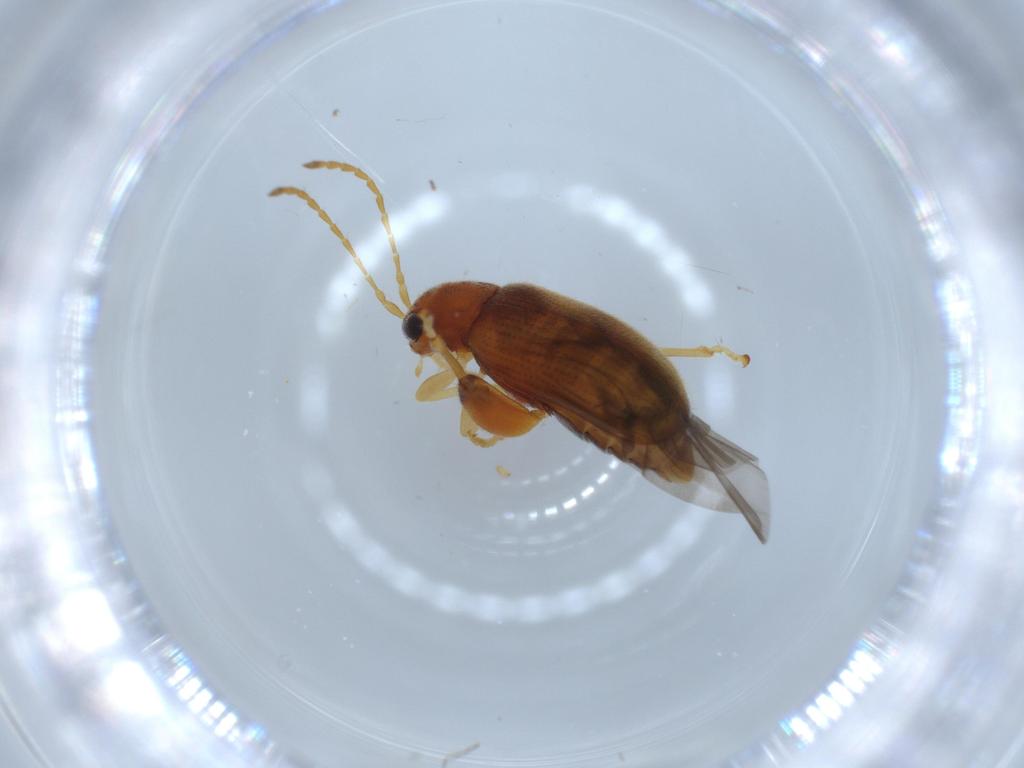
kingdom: Animalia
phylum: Arthropoda
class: Insecta
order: Coleoptera
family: Chrysomelidae
